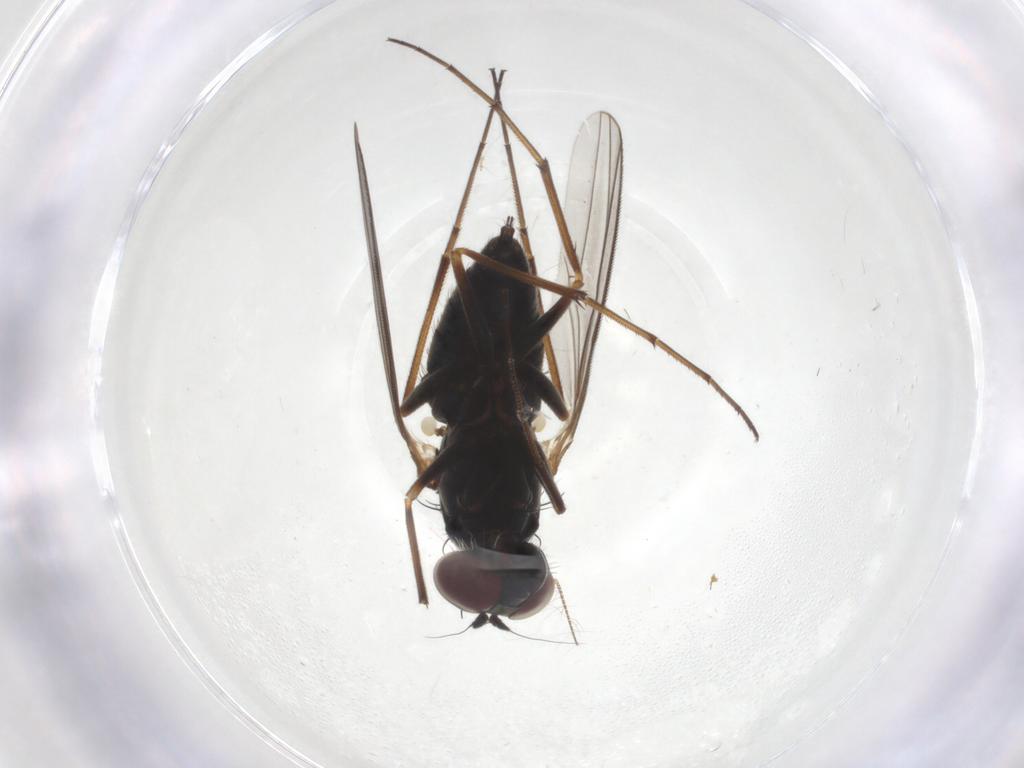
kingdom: Animalia
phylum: Arthropoda
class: Insecta
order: Diptera
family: Dolichopodidae
